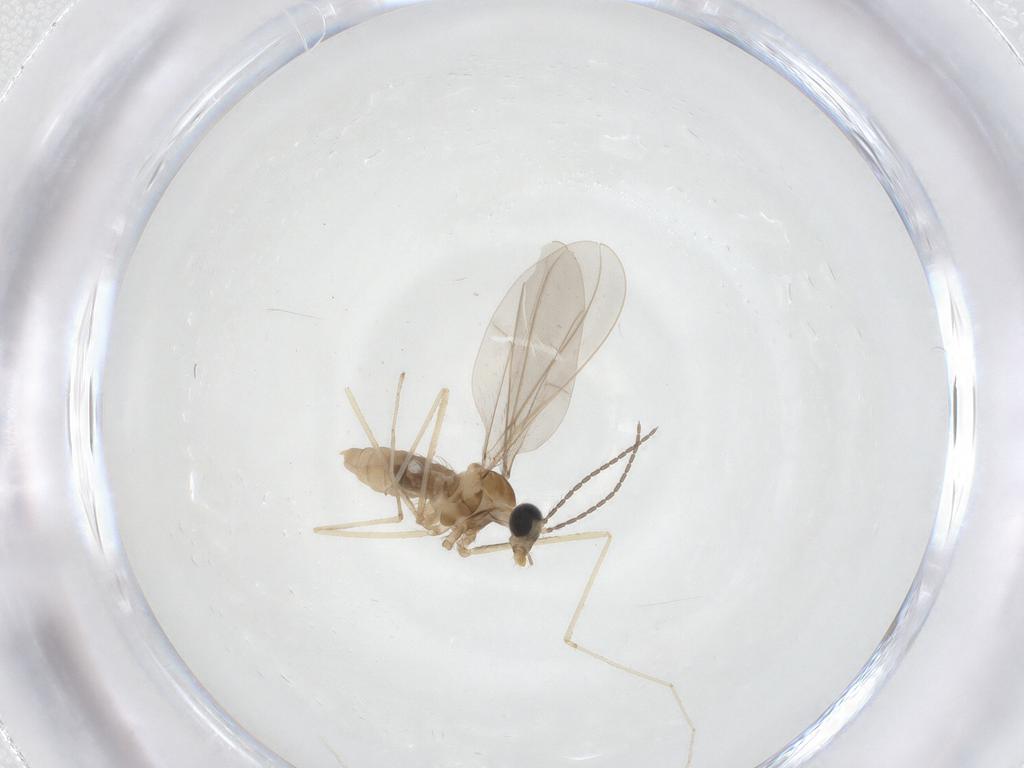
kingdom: Animalia
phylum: Arthropoda
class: Insecta
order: Diptera
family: Cecidomyiidae
